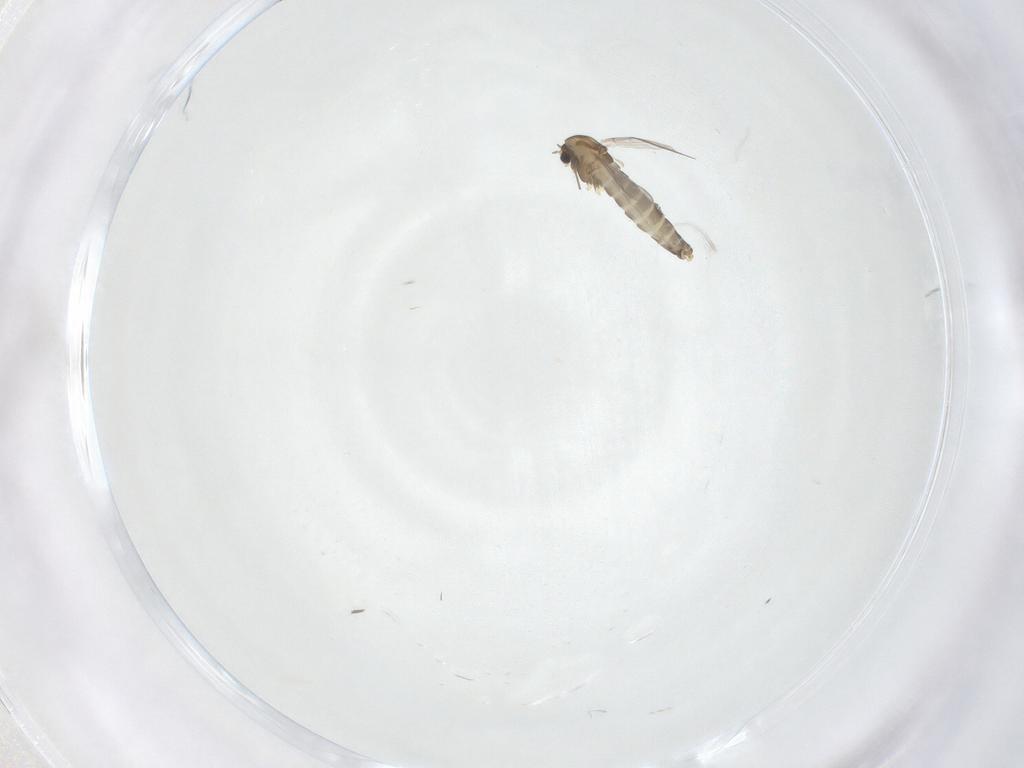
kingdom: Animalia
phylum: Arthropoda
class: Insecta
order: Diptera
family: Chironomidae
